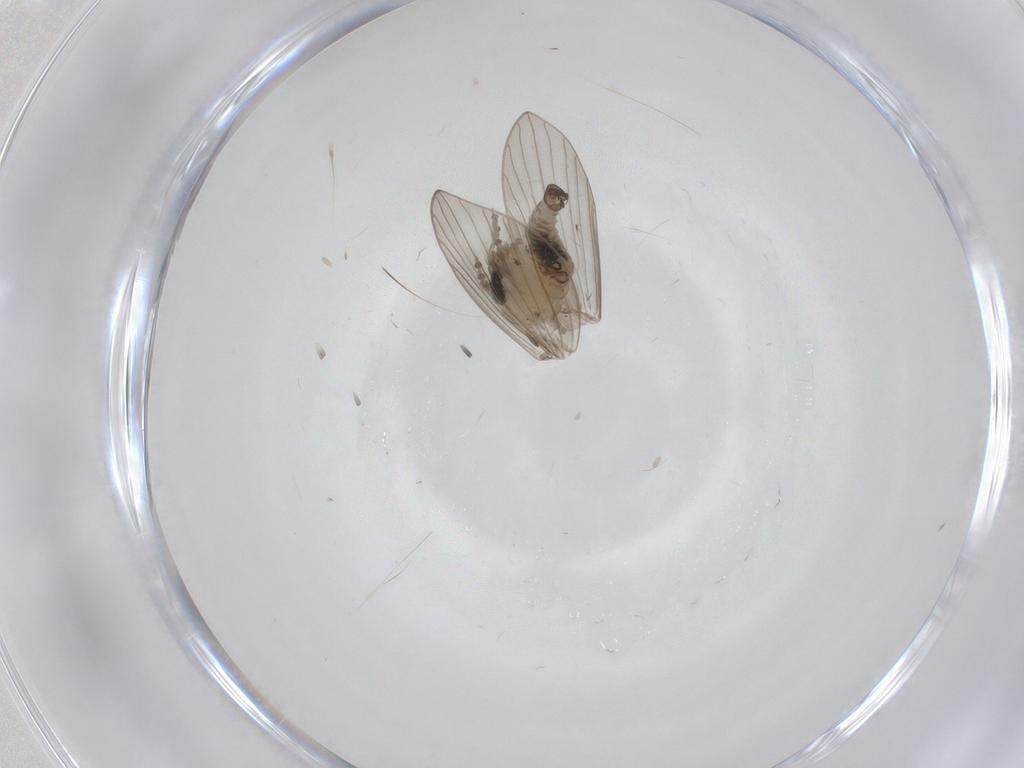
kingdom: Animalia
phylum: Arthropoda
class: Insecta
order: Diptera
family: Psychodidae
